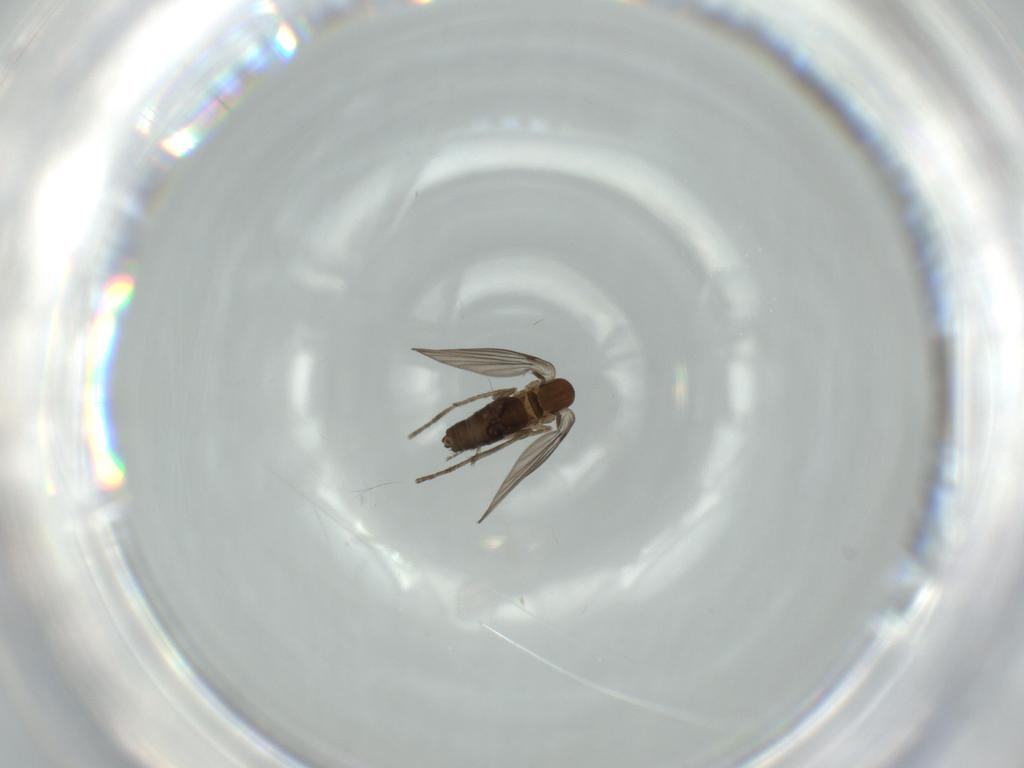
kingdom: Animalia
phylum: Arthropoda
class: Insecta
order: Diptera
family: Psychodidae
